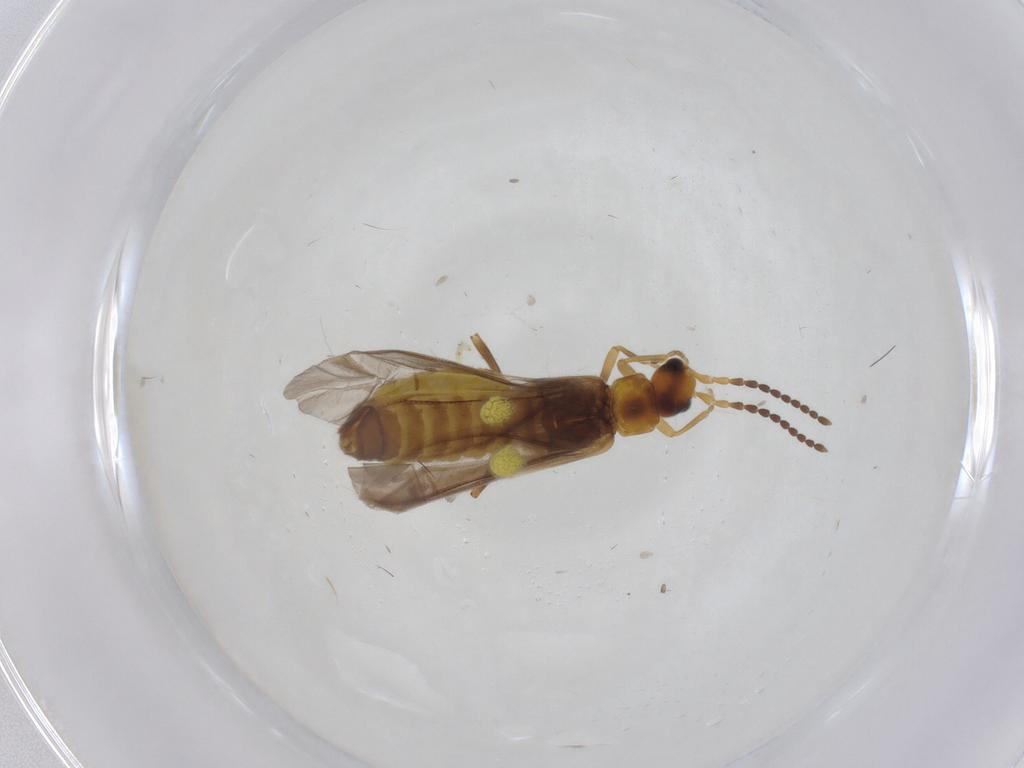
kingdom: Animalia
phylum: Arthropoda
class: Insecta
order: Coleoptera
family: Cantharidae
